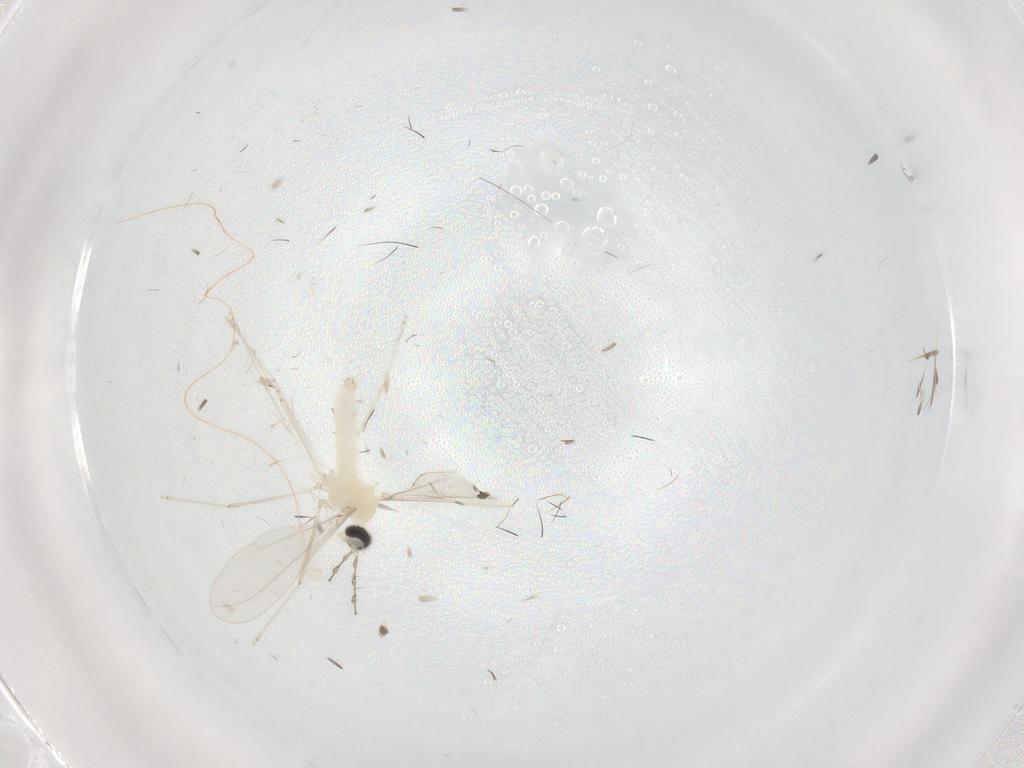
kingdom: Animalia
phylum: Arthropoda
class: Insecta
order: Diptera
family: Cecidomyiidae
